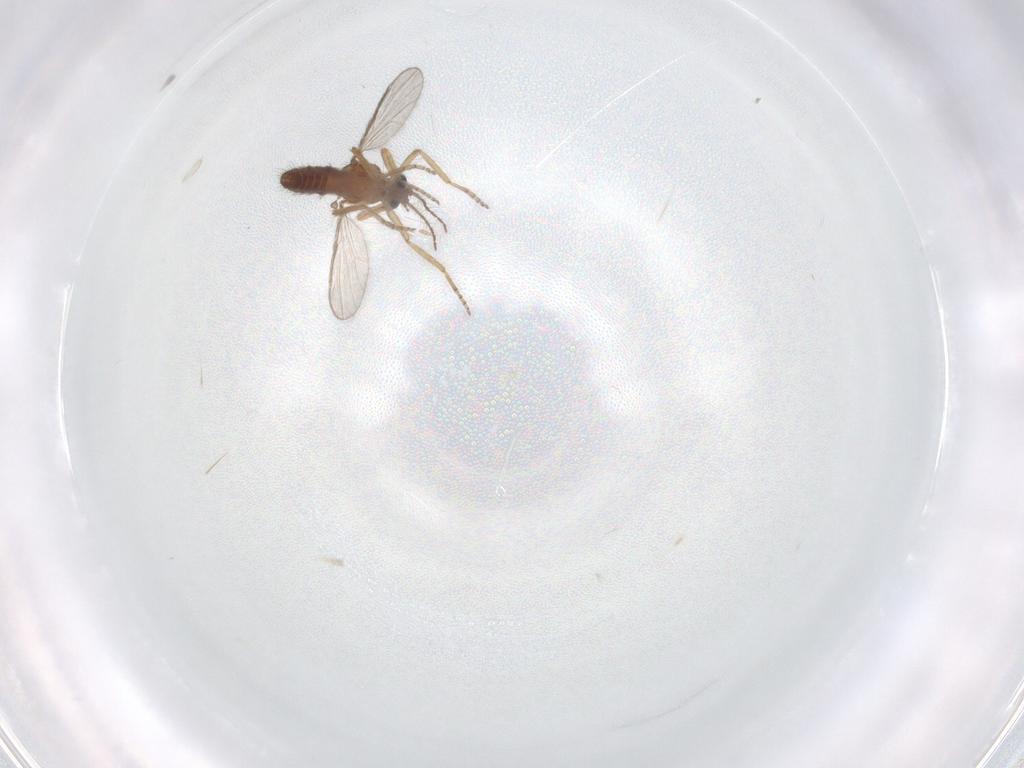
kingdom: Animalia
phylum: Arthropoda
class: Insecta
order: Diptera
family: Ceratopogonidae
